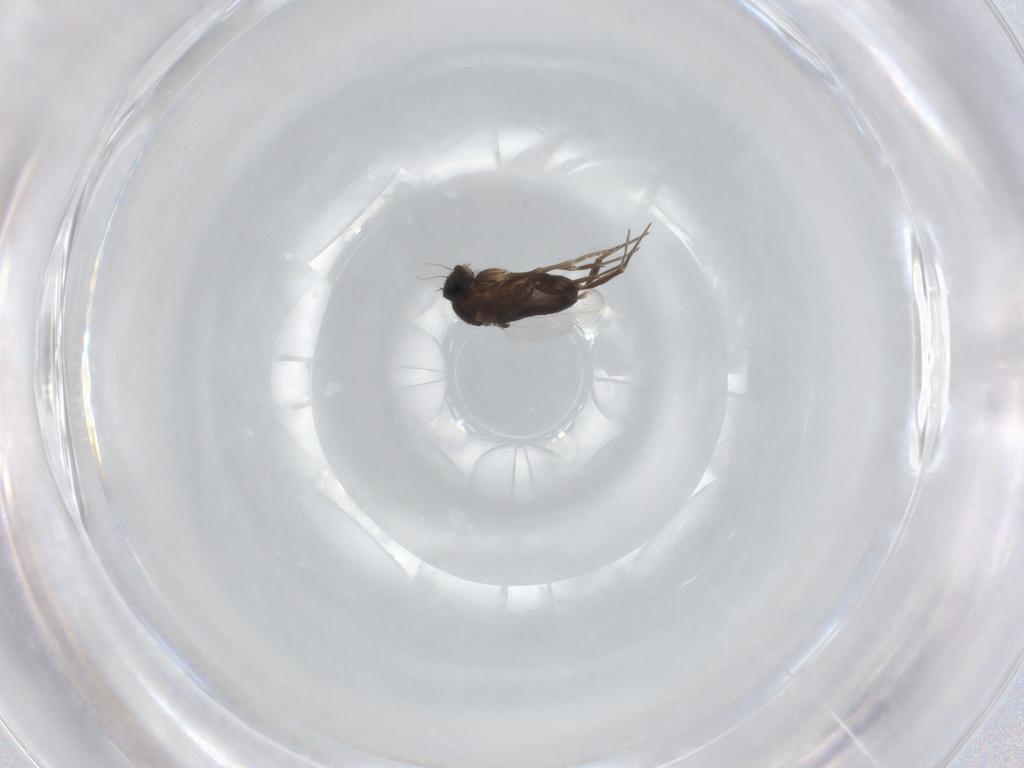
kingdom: Animalia
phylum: Arthropoda
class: Insecta
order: Diptera
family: Phoridae
